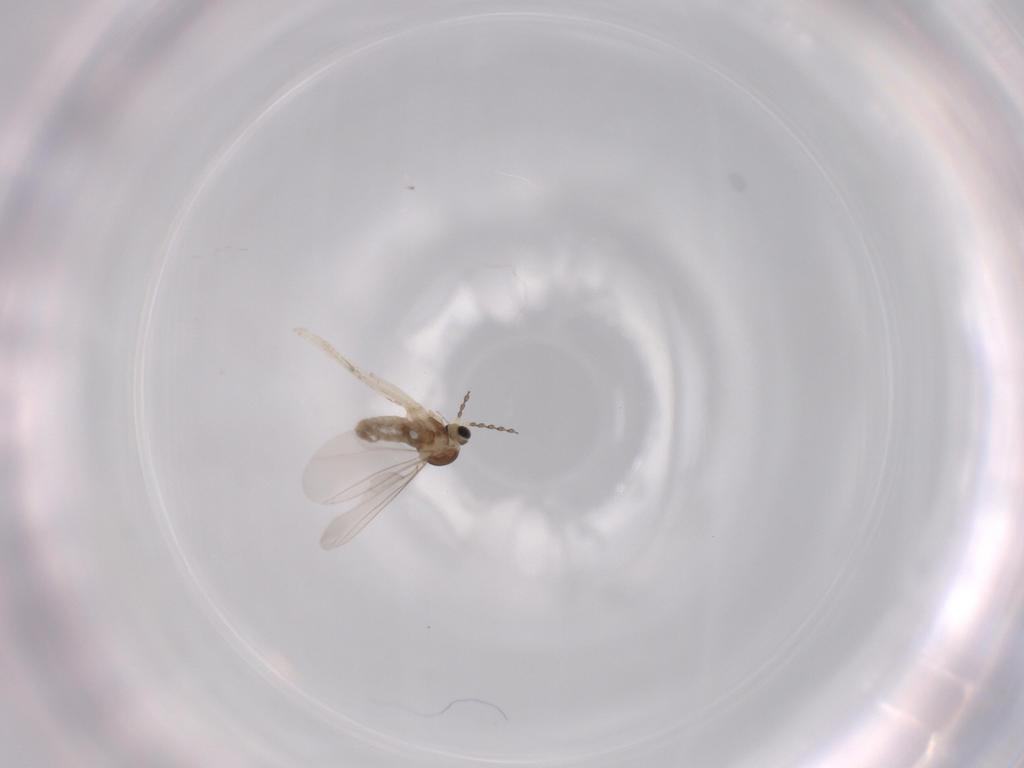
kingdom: Animalia
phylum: Arthropoda
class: Insecta
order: Diptera
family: Cecidomyiidae
